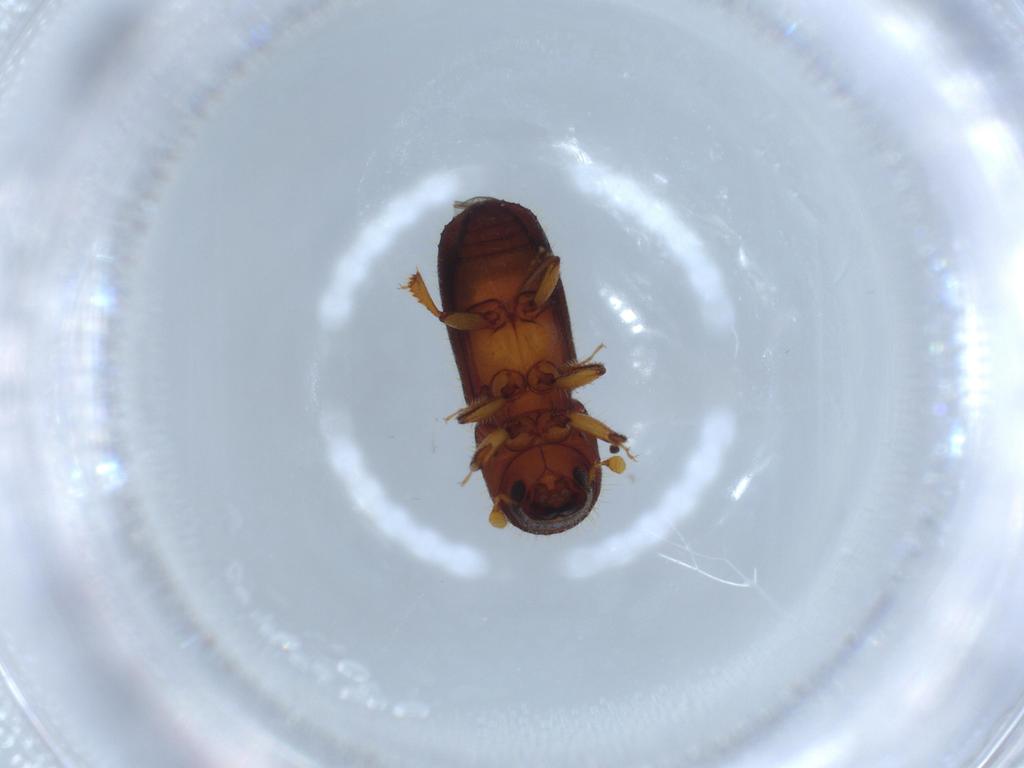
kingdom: Animalia
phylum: Arthropoda
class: Insecta
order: Coleoptera
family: Curculionidae
